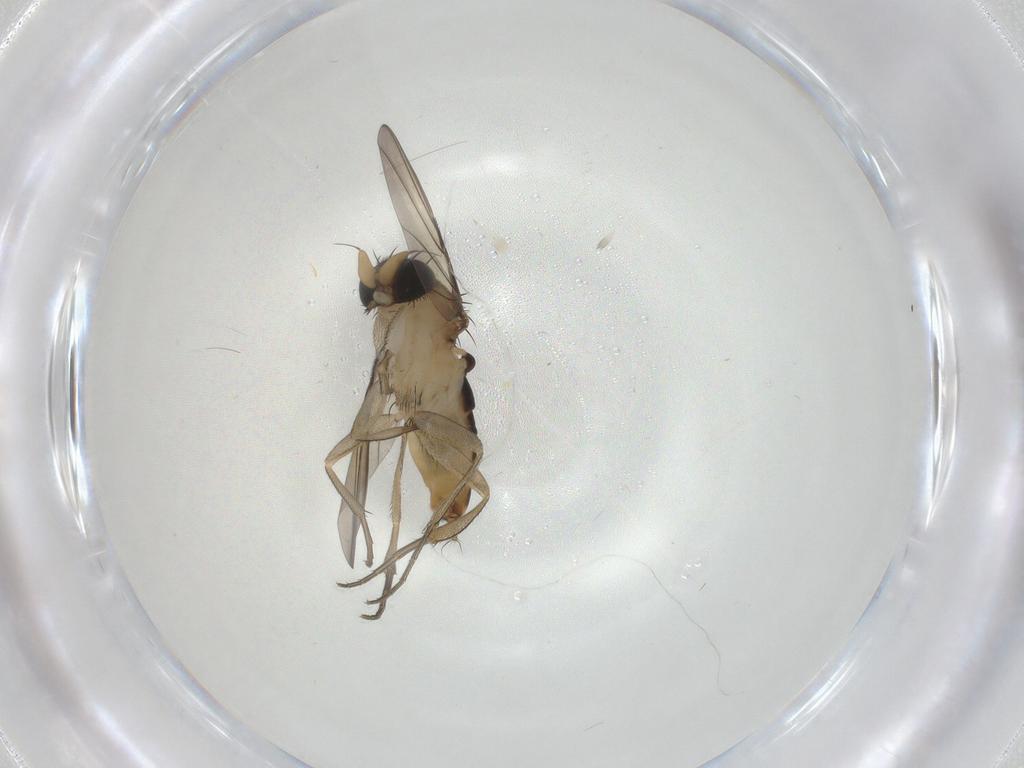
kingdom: Animalia
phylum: Arthropoda
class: Insecta
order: Diptera
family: Phoridae
